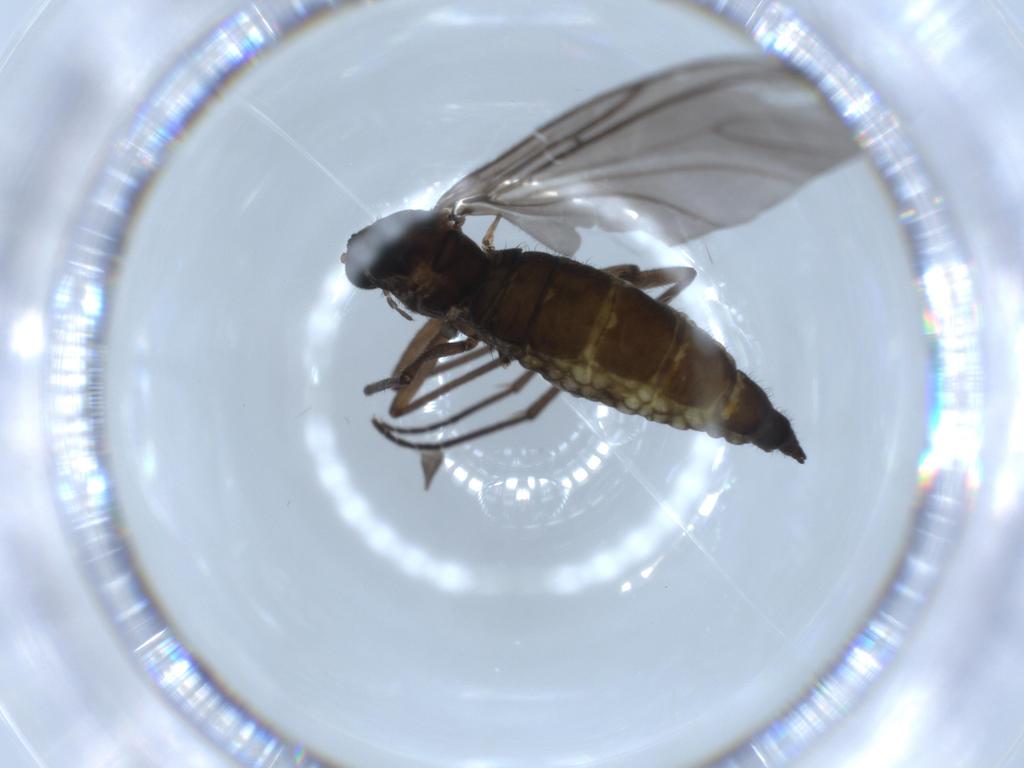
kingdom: Animalia
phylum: Arthropoda
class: Insecta
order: Diptera
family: Sciaridae
